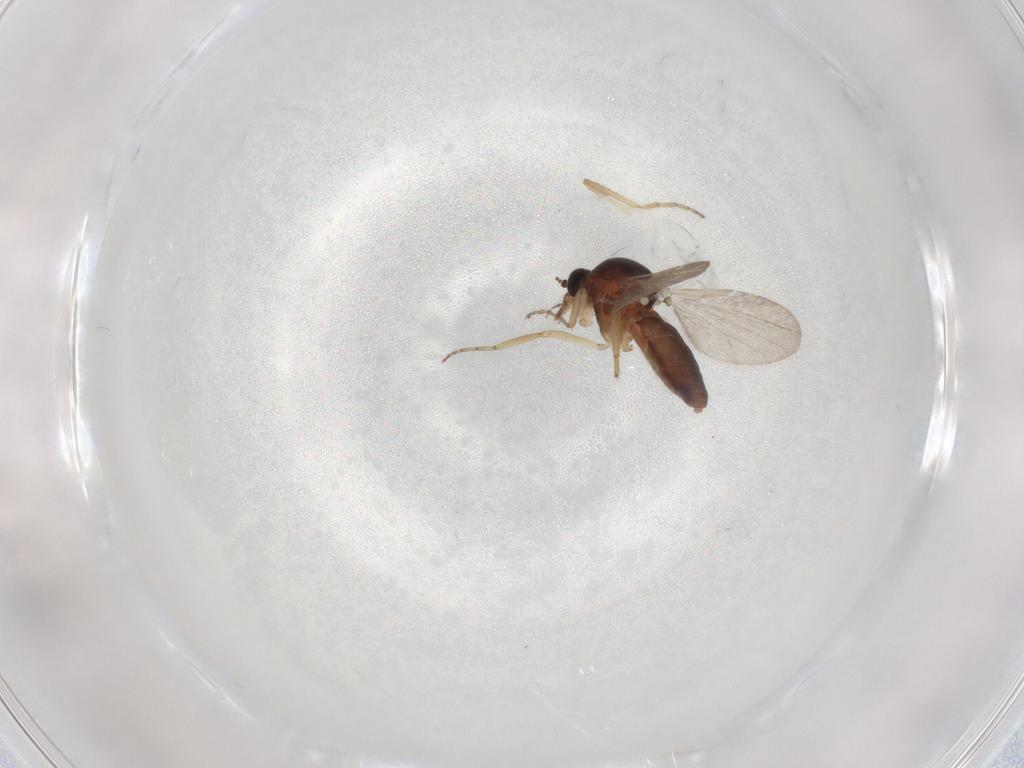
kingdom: Animalia
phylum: Arthropoda
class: Insecta
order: Diptera
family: Ceratopogonidae
